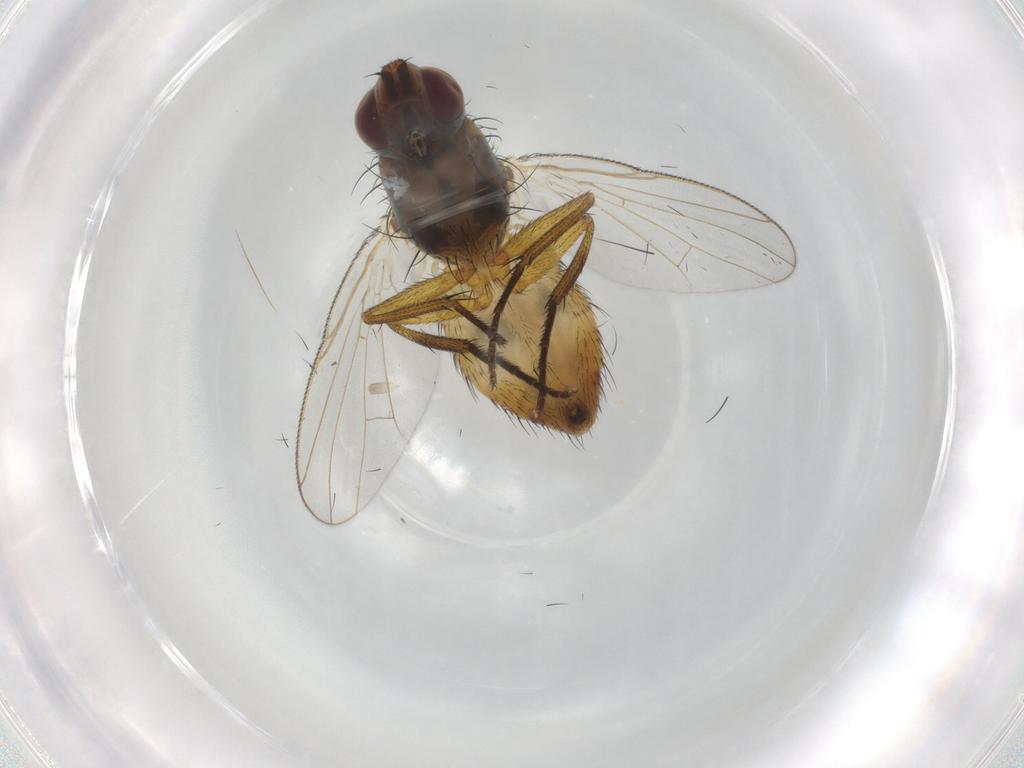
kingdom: Animalia
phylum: Arthropoda
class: Insecta
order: Diptera
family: Muscidae
